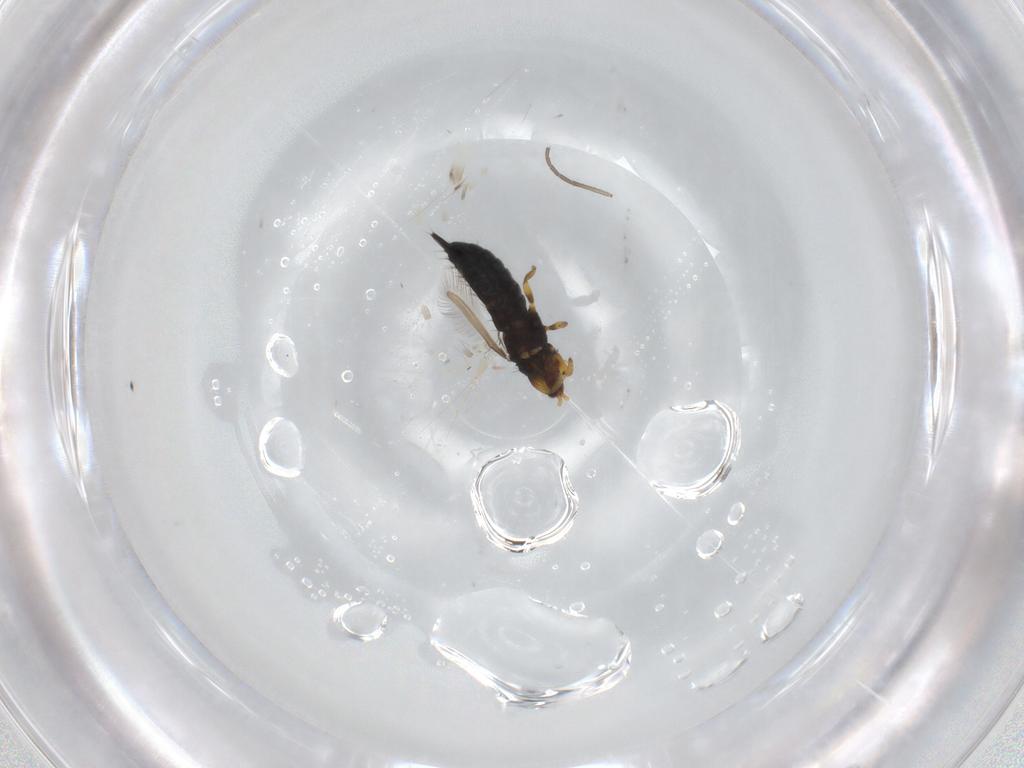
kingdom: Animalia
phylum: Arthropoda
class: Insecta
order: Thysanoptera
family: Phlaeothripidae
